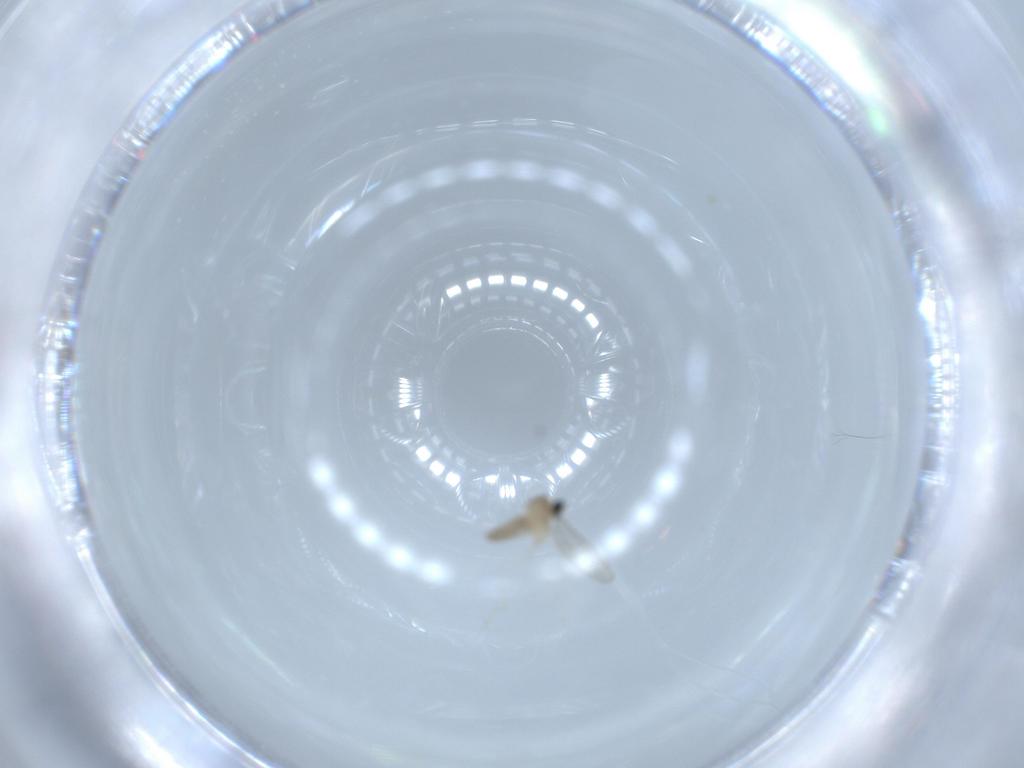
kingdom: Animalia
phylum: Arthropoda
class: Insecta
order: Diptera
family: Cecidomyiidae
